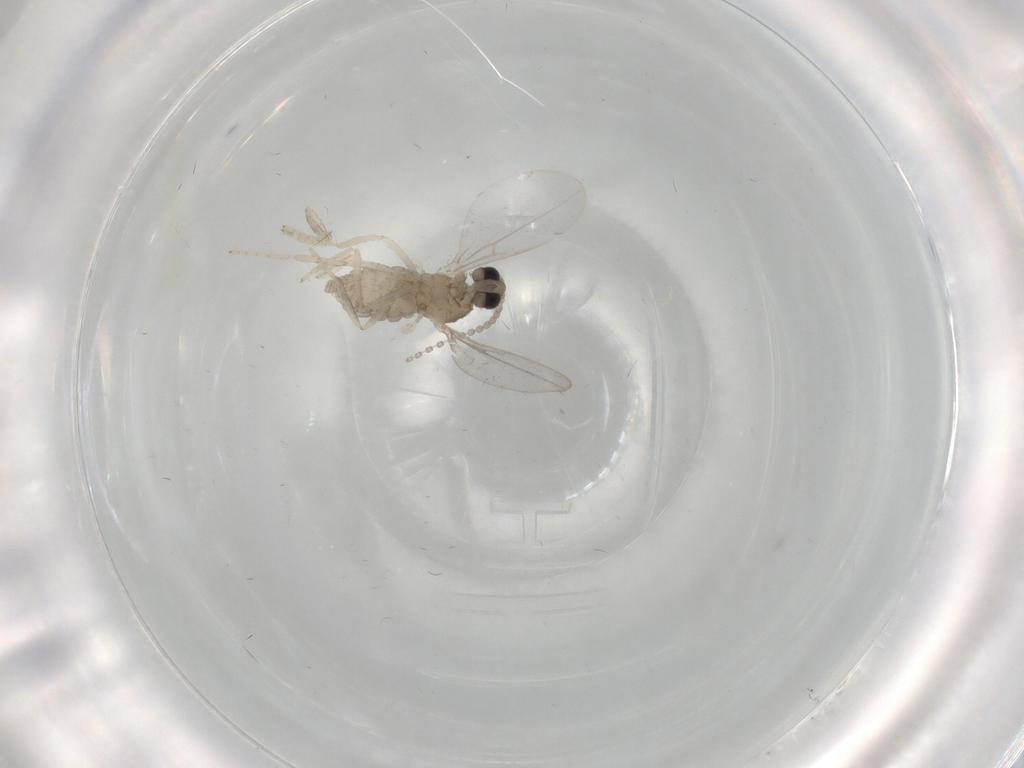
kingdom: Animalia
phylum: Arthropoda
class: Insecta
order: Diptera
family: Cecidomyiidae
